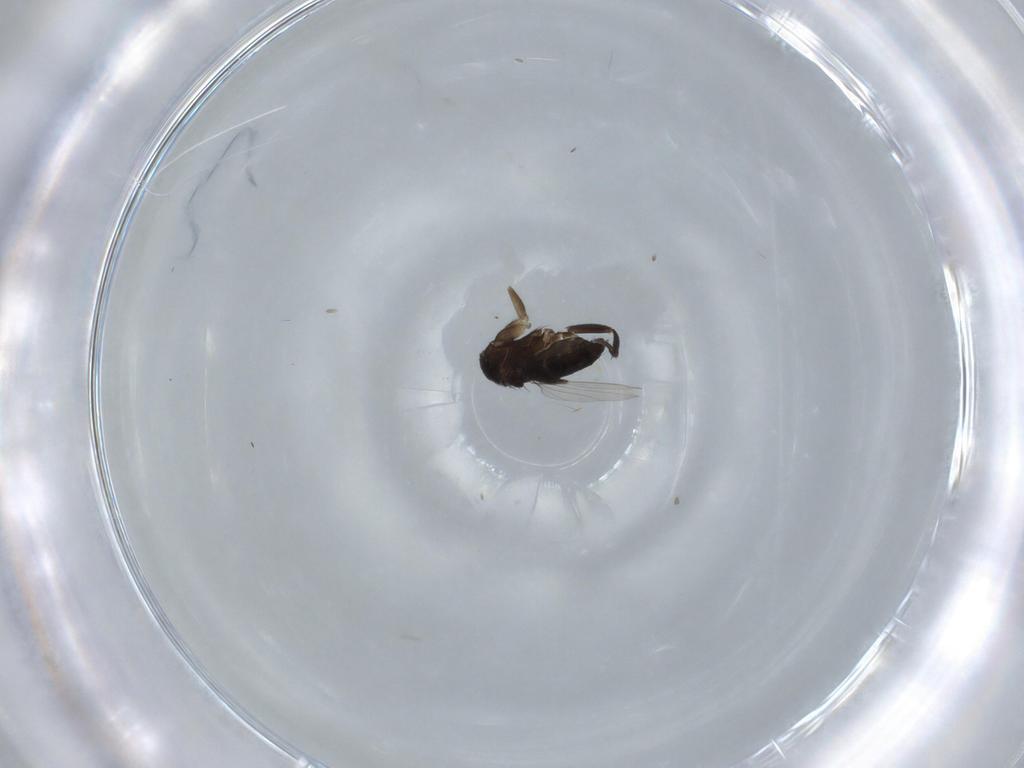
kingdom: Animalia
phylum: Arthropoda
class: Insecta
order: Diptera
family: Phoridae
